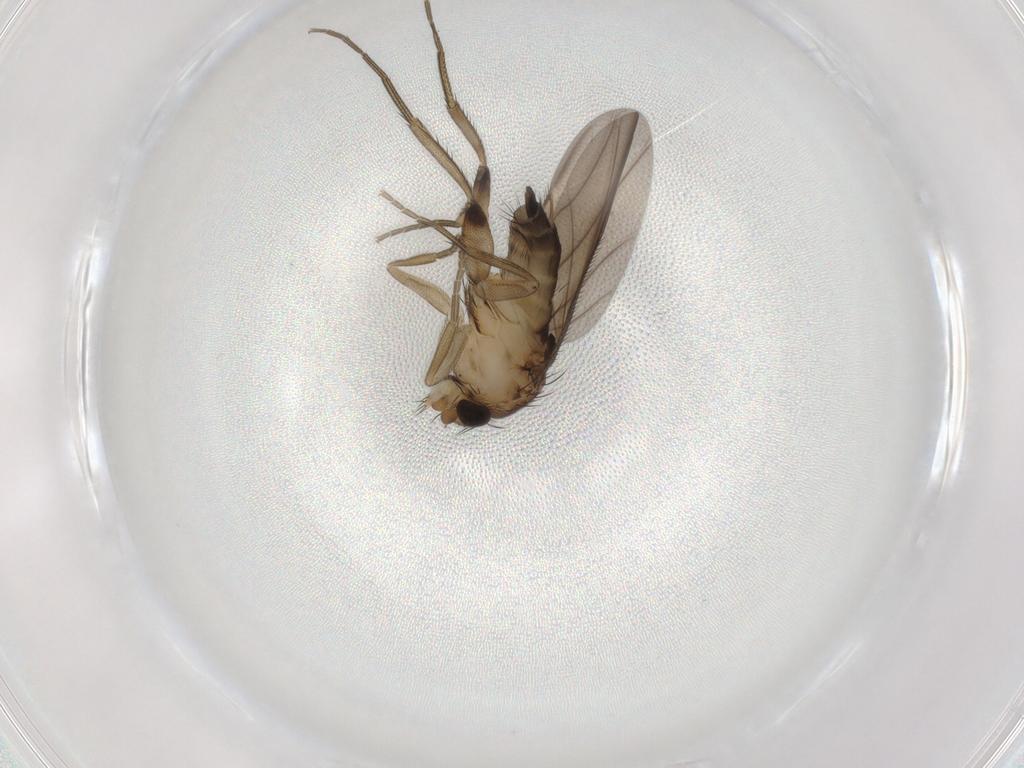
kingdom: Animalia
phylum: Arthropoda
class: Insecta
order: Diptera
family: Phoridae
